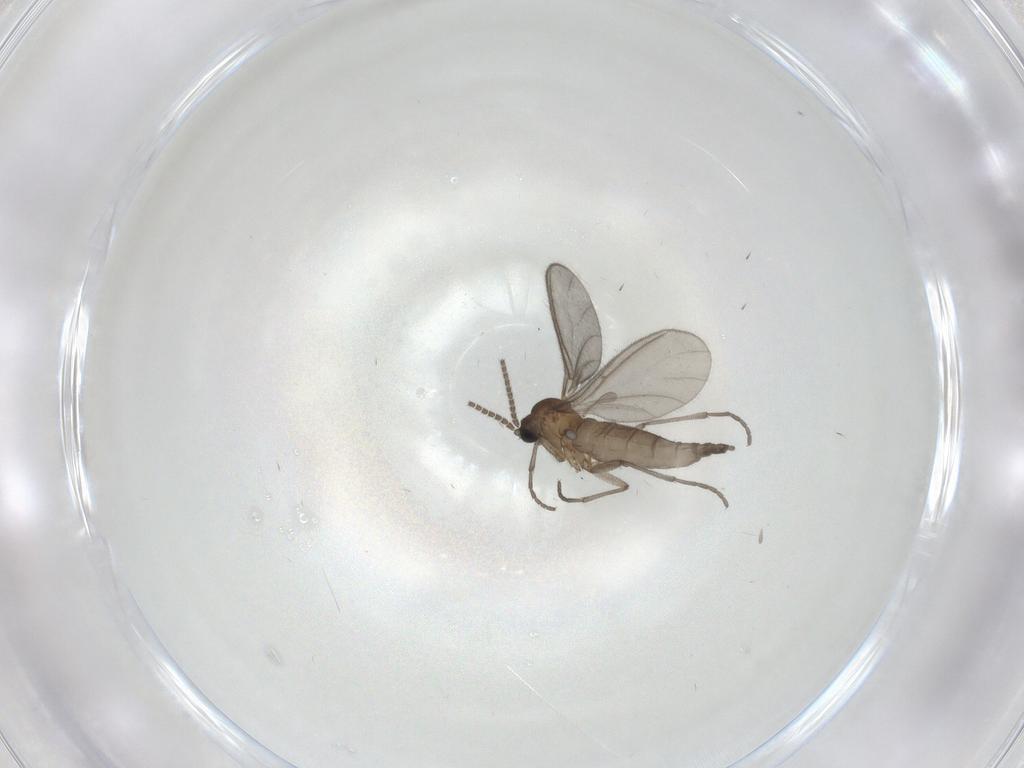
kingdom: Animalia
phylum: Arthropoda
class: Insecta
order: Diptera
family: Sciaridae
